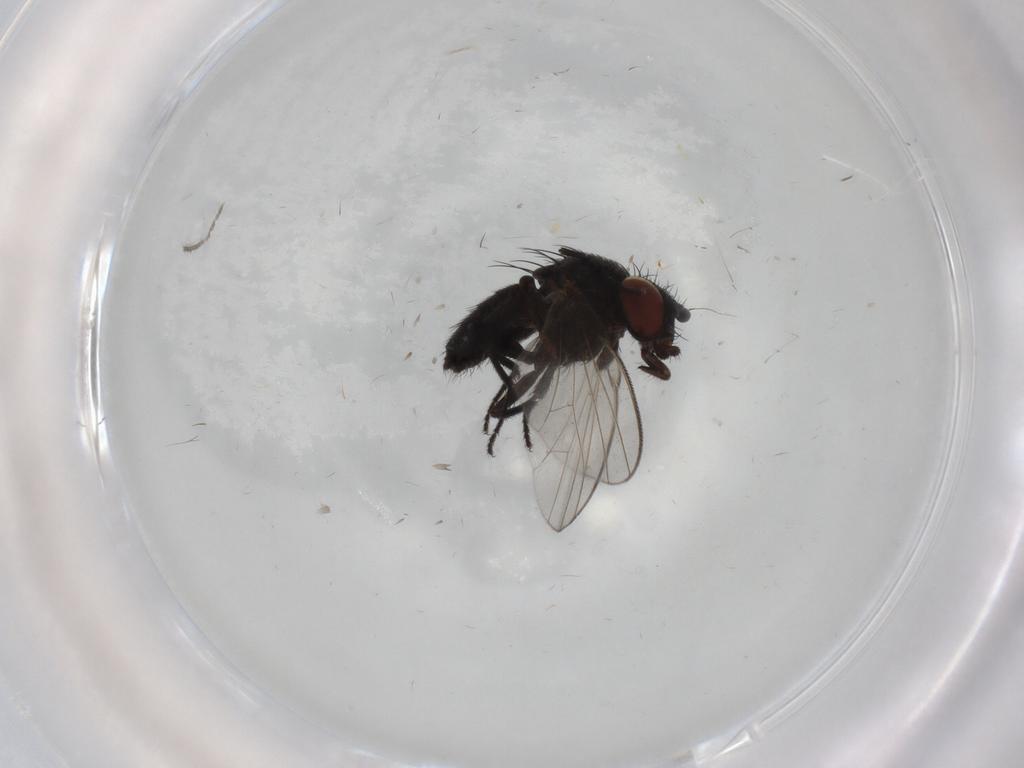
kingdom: Animalia
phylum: Arthropoda
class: Insecta
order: Diptera
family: Milichiidae
